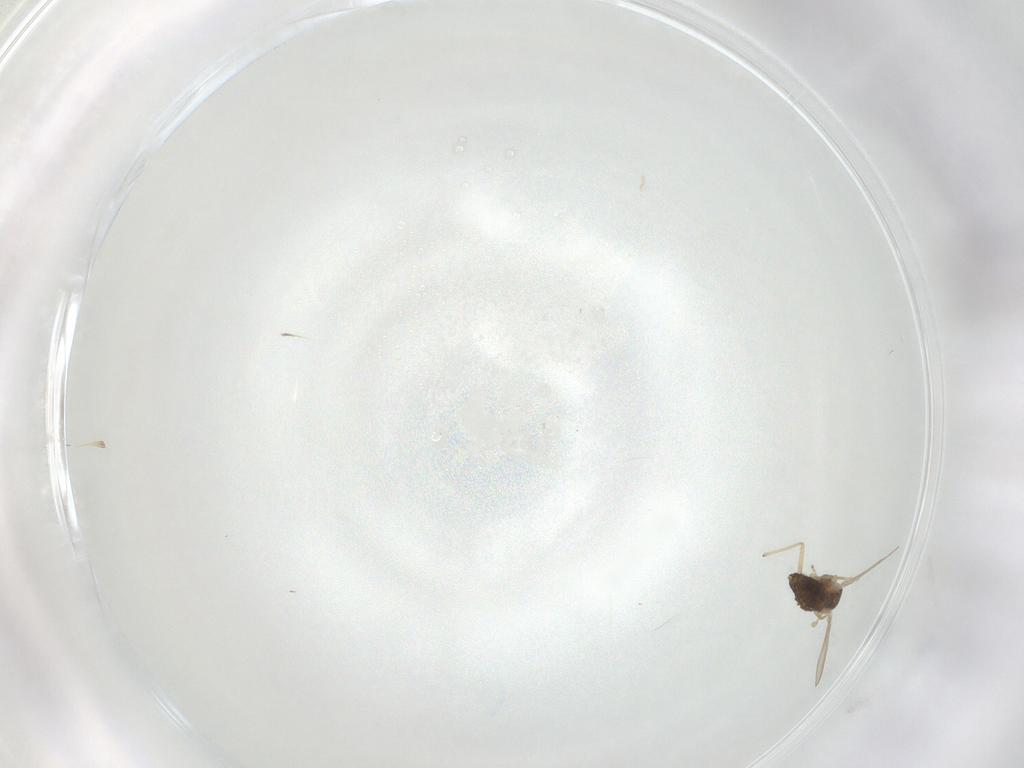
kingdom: Animalia
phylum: Arthropoda
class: Insecta
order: Diptera
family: Chironomidae
